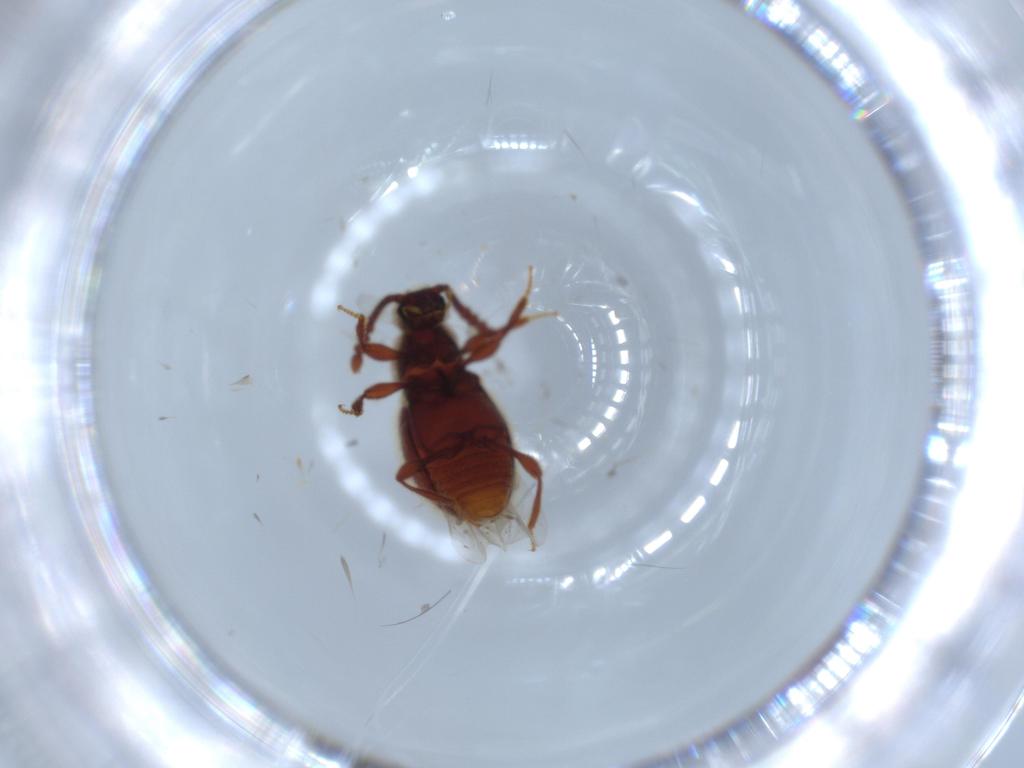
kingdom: Animalia
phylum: Arthropoda
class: Insecta
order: Coleoptera
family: Staphylinidae
